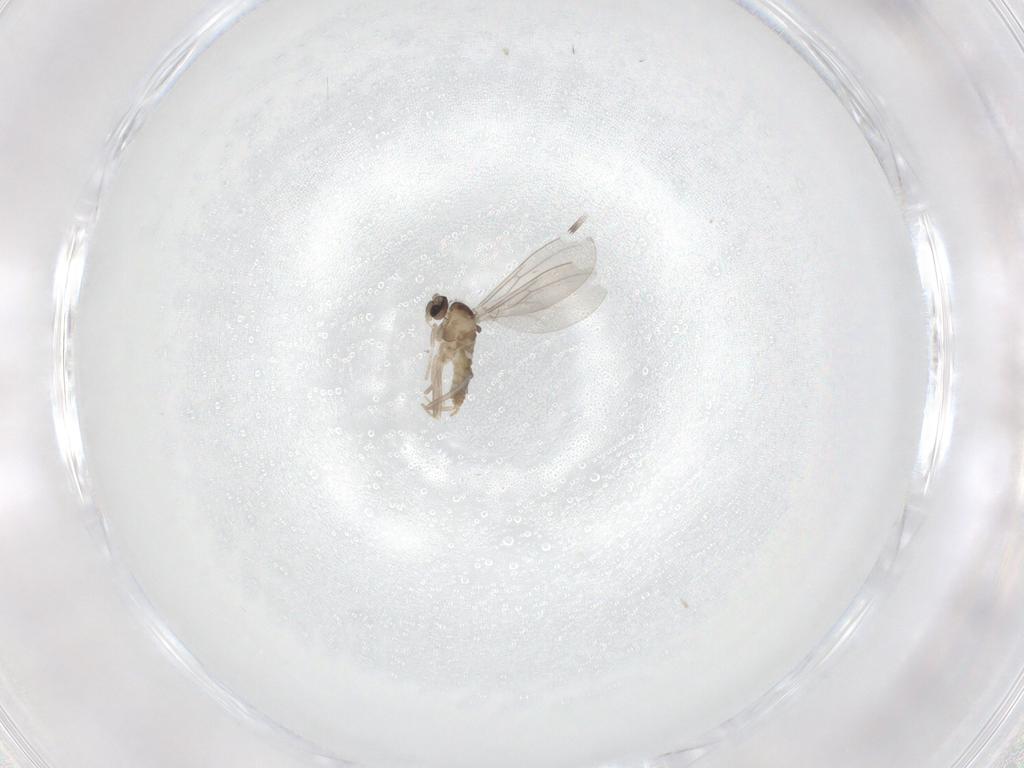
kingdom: Animalia
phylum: Arthropoda
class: Insecta
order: Diptera
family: Cecidomyiidae
